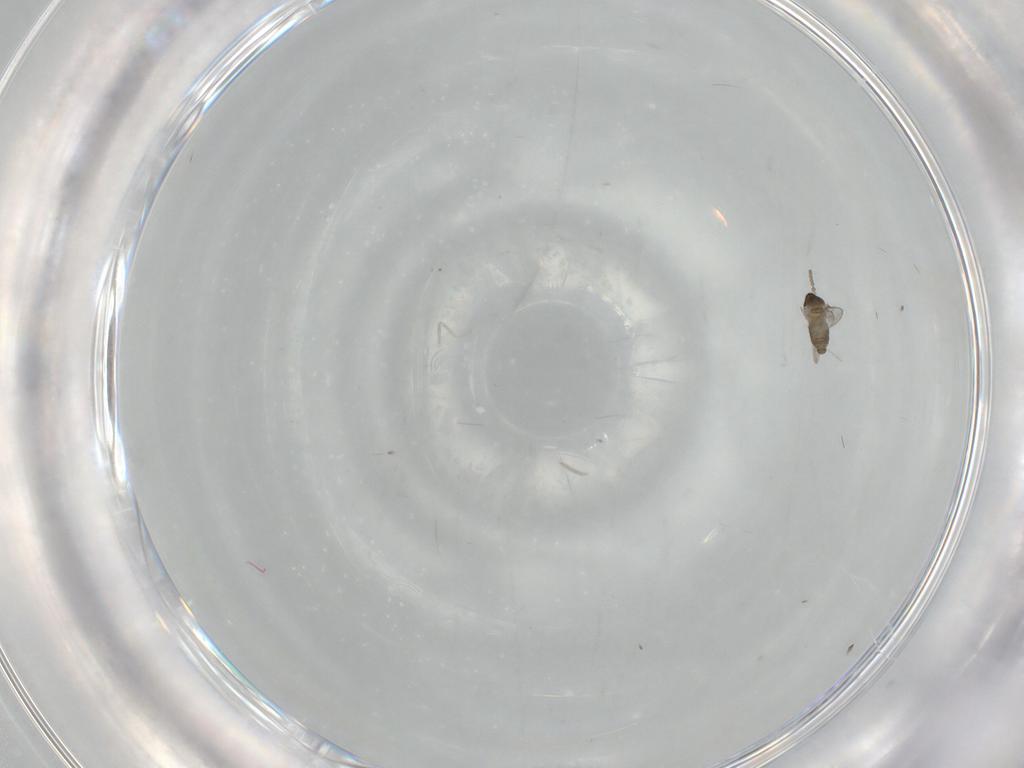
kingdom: Animalia
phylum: Arthropoda
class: Insecta
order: Diptera
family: Cecidomyiidae
